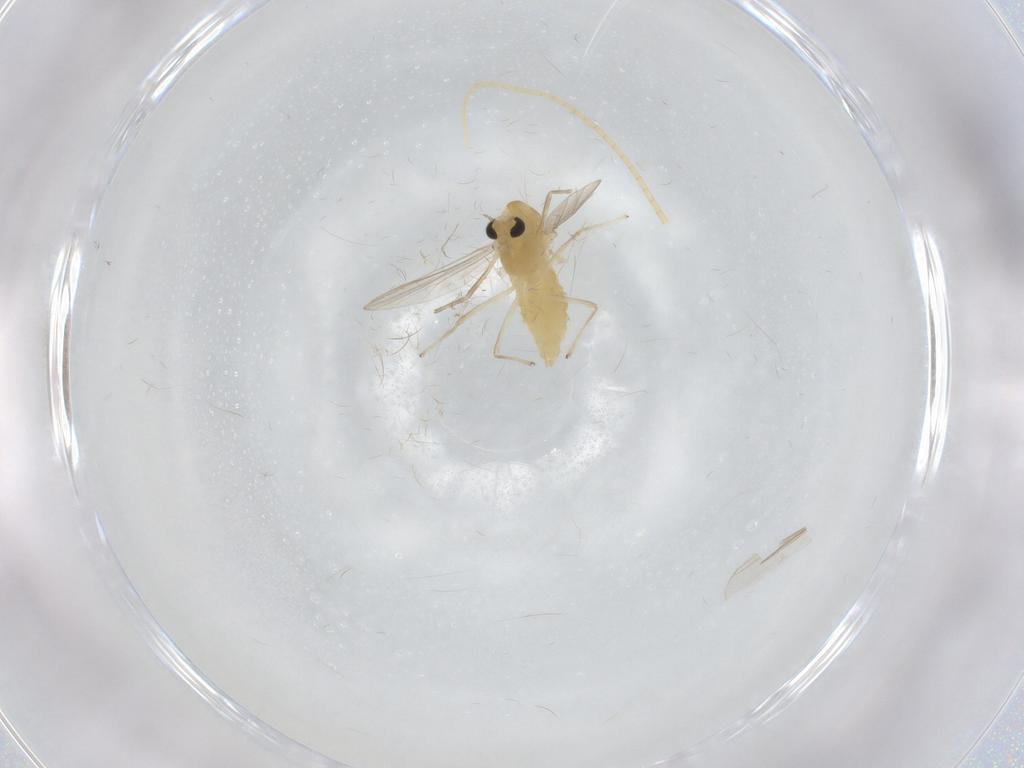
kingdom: Animalia
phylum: Arthropoda
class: Insecta
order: Diptera
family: Chironomidae
